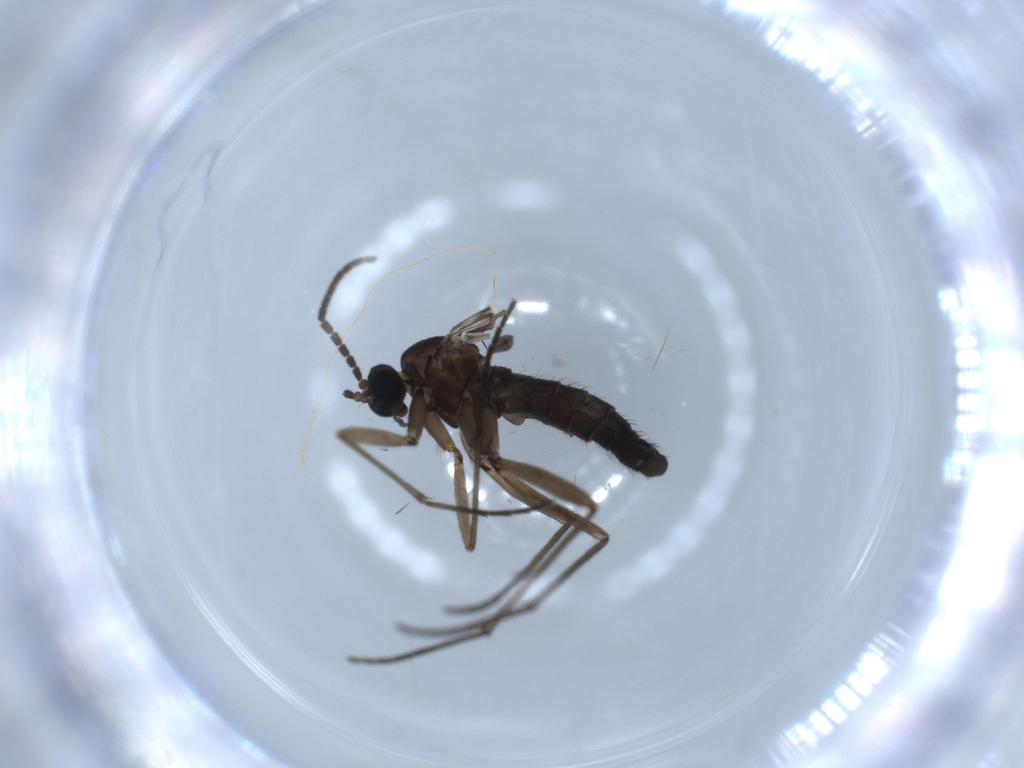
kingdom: Animalia
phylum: Arthropoda
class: Insecta
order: Diptera
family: Sciaridae
